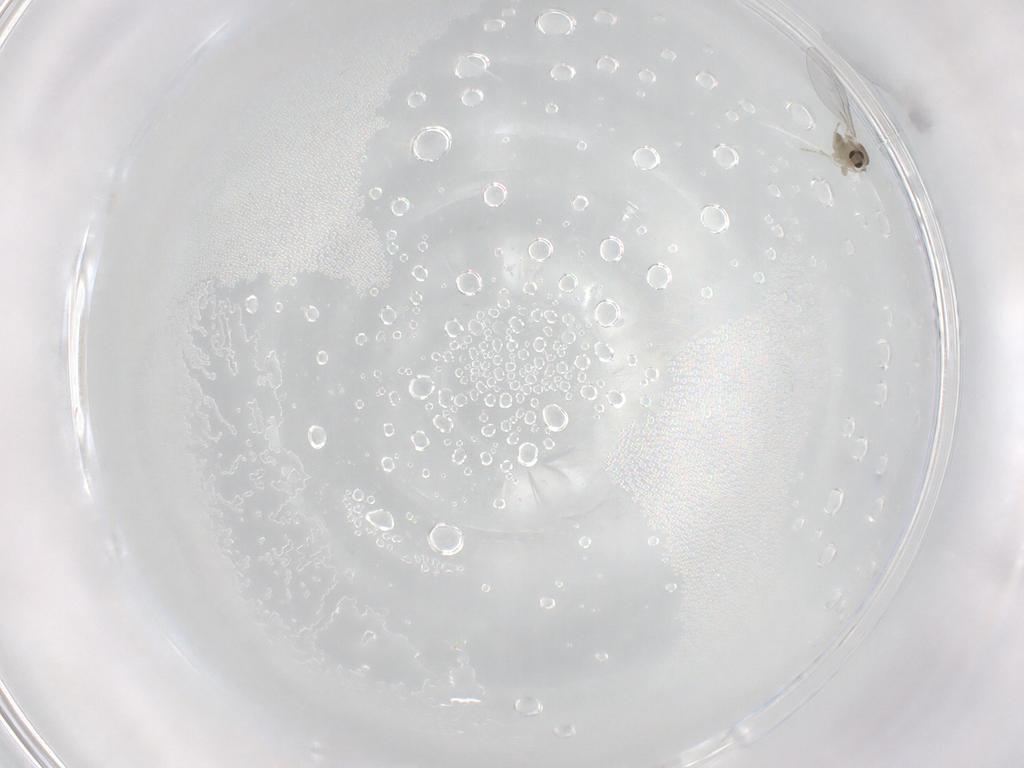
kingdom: Animalia
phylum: Arthropoda
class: Insecta
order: Diptera
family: Cecidomyiidae
